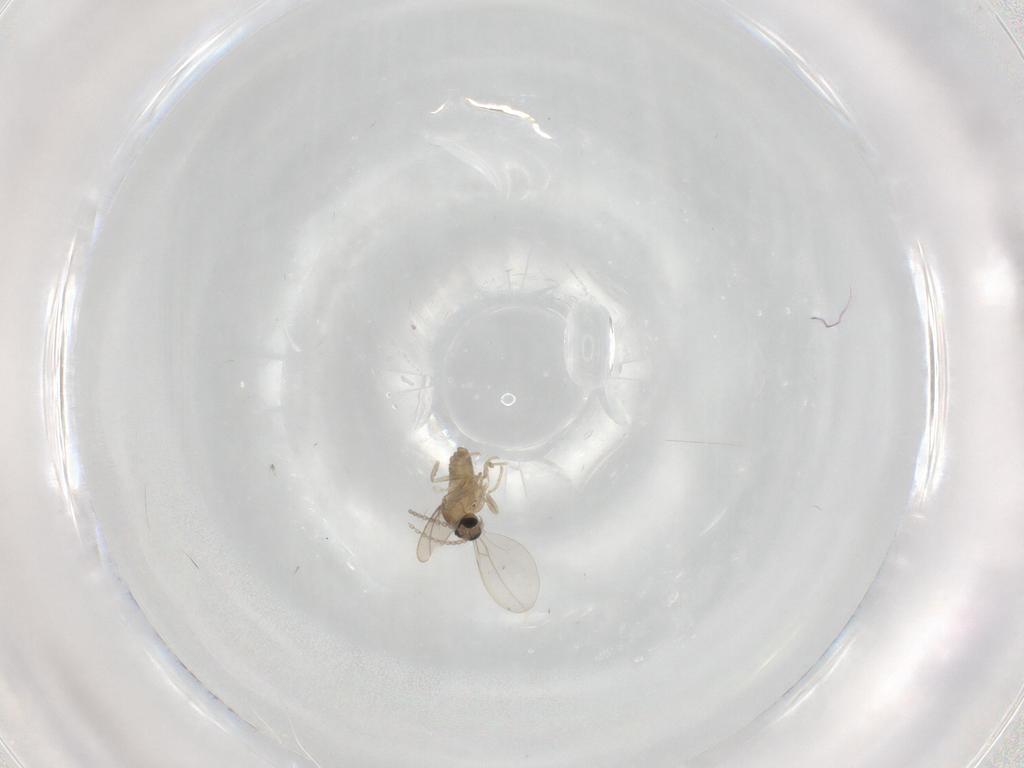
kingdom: Animalia
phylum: Arthropoda
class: Insecta
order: Diptera
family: Cecidomyiidae
